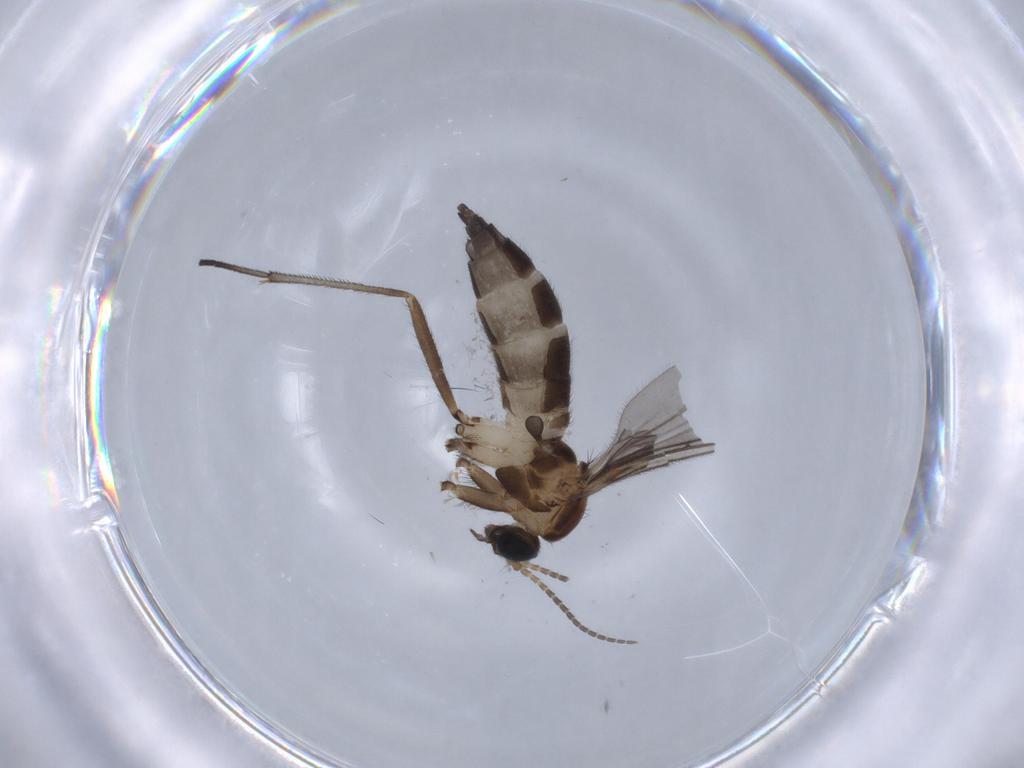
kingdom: Animalia
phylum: Arthropoda
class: Insecta
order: Diptera
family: Sciaridae
